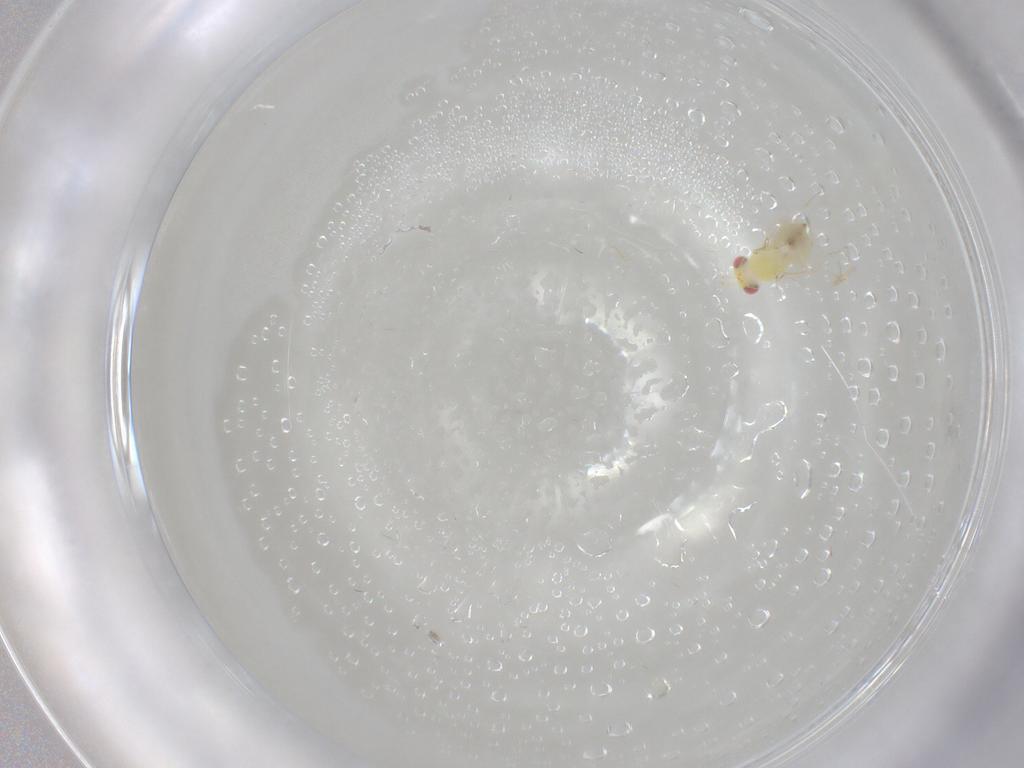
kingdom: Animalia
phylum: Arthropoda
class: Insecta
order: Hymenoptera
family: Eulophidae
